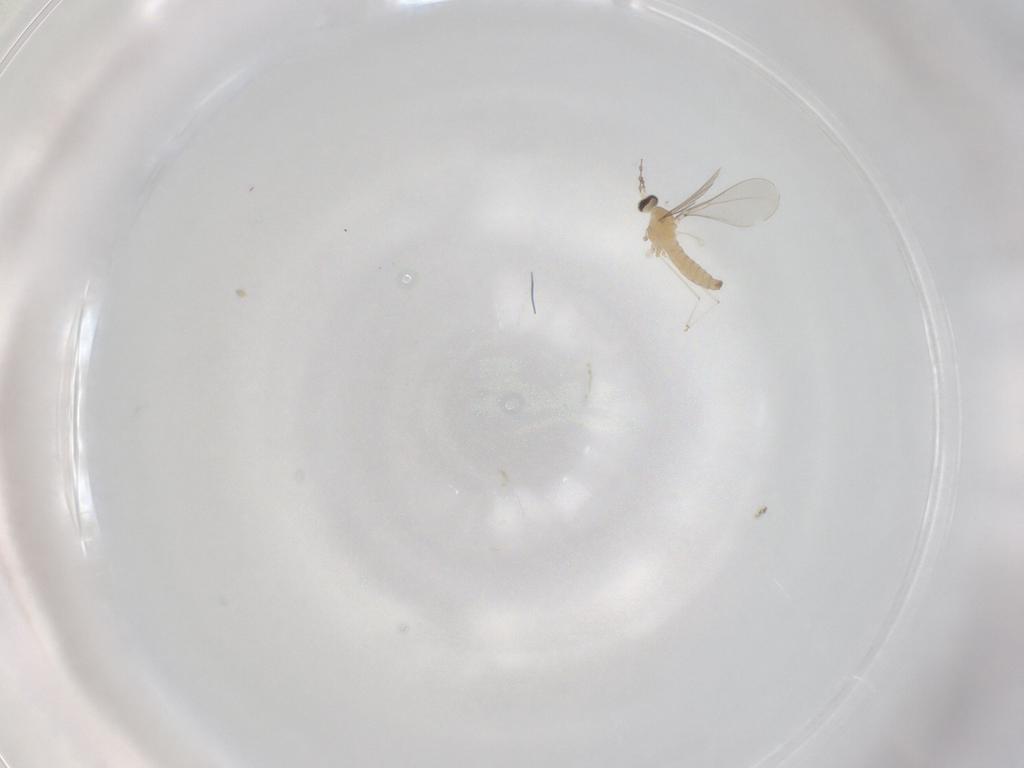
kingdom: Animalia
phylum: Arthropoda
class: Insecta
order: Diptera
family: Cecidomyiidae
